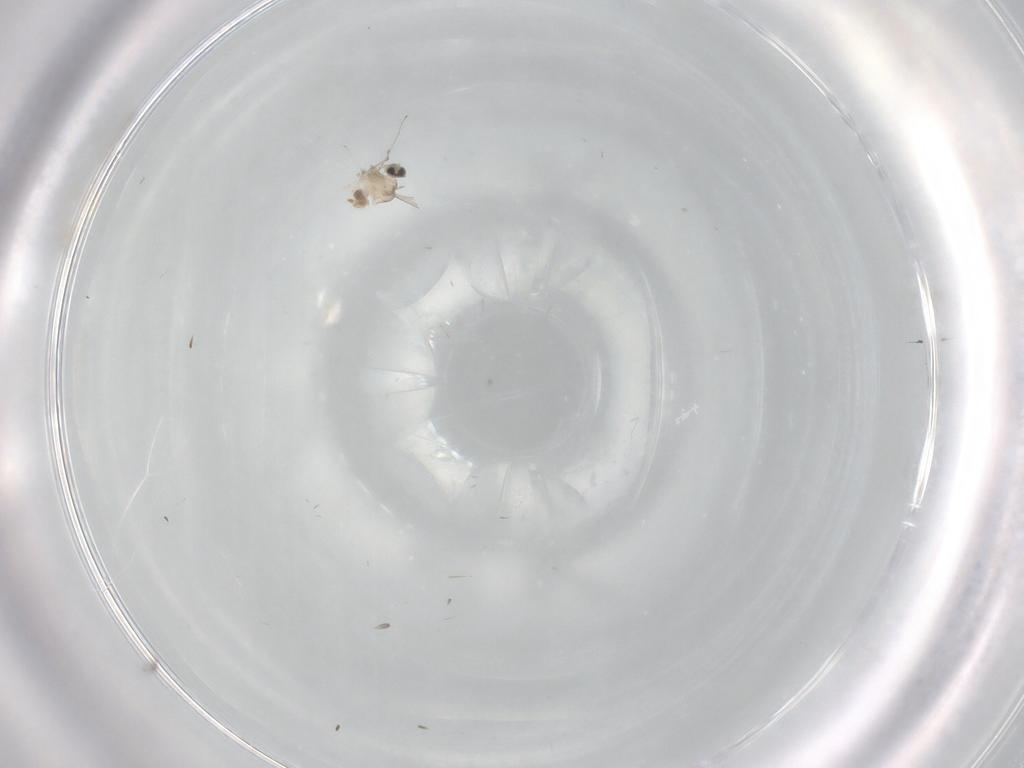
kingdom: Animalia
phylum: Arthropoda
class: Insecta
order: Diptera
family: Cecidomyiidae
